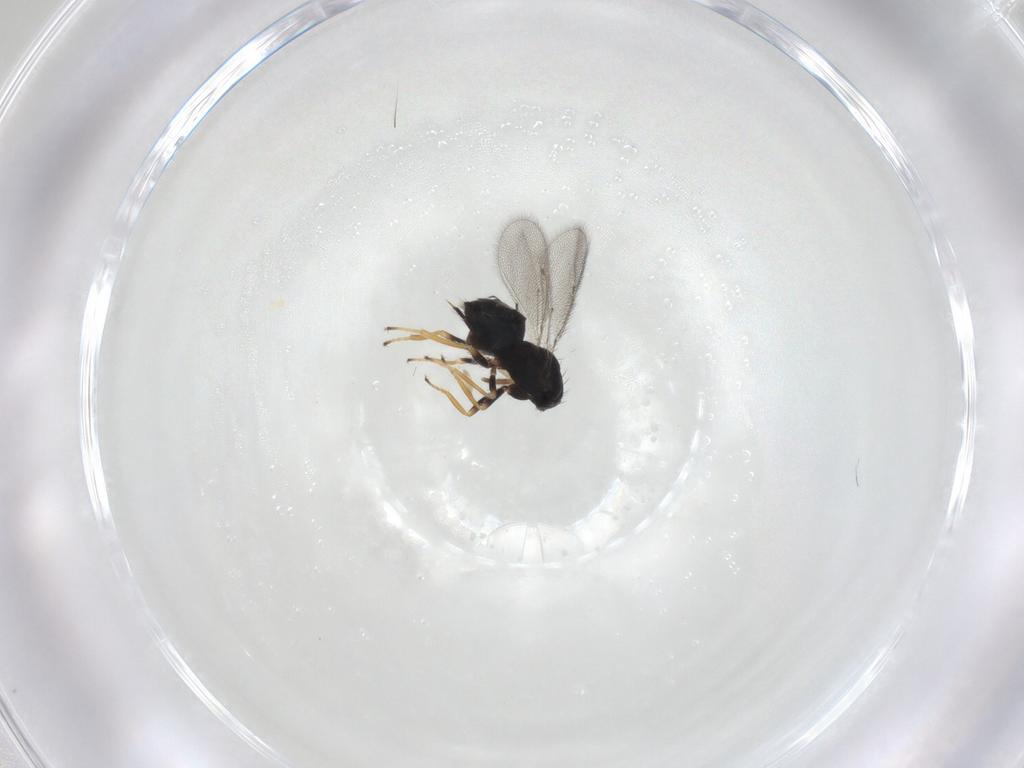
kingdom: Animalia
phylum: Arthropoda
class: Insecta
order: Hymenoptera
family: Eulophidae
